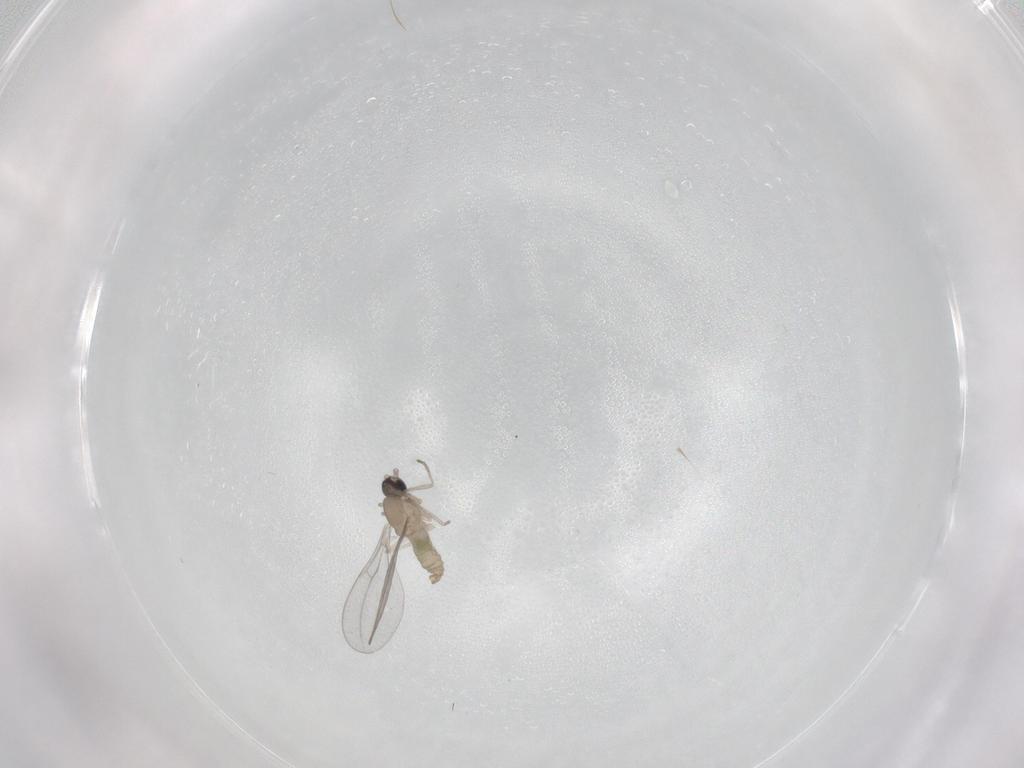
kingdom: Animalia
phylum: Arthropoda
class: Insecta
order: Diptera
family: Cecidomyiidae
